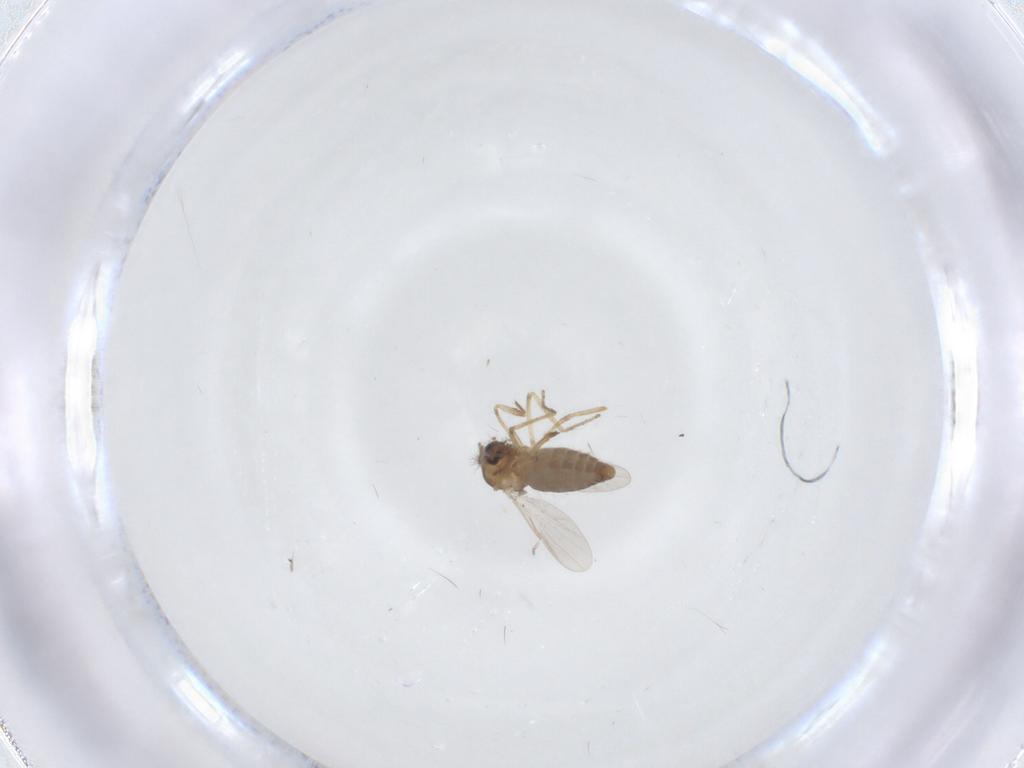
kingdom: Animalia
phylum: Arthropoda
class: Insecta
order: Diptera
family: Ceratopogonidae
